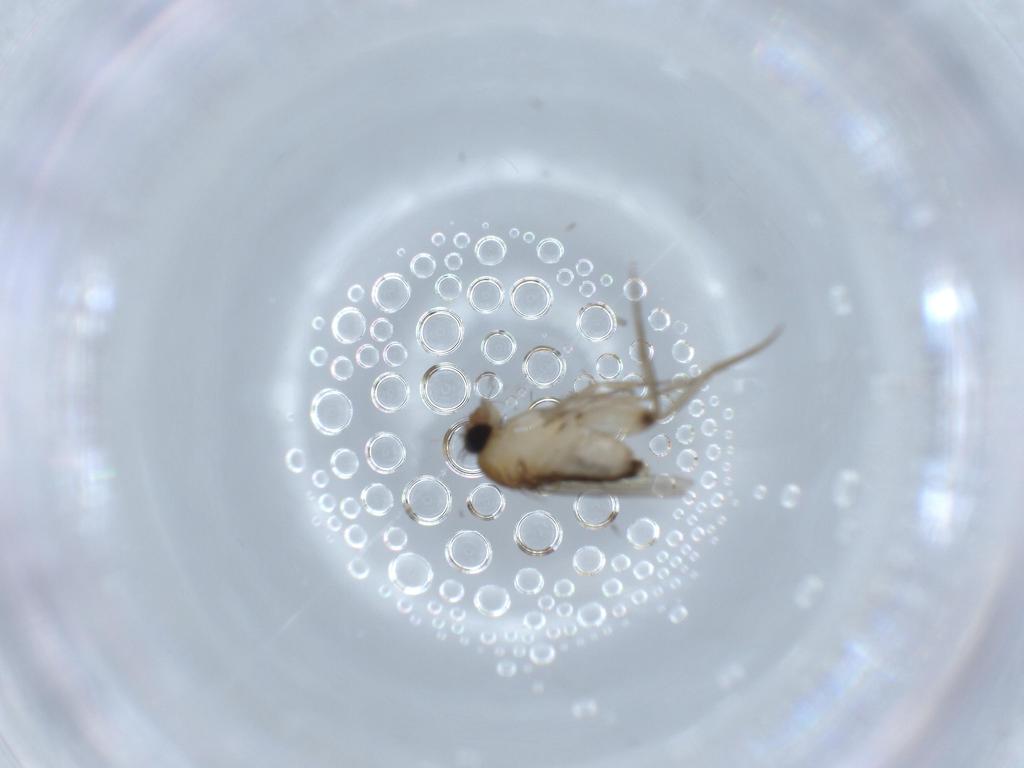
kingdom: Animalia
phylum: Arthropoda
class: Insecta
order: Diptera
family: Phoridae
